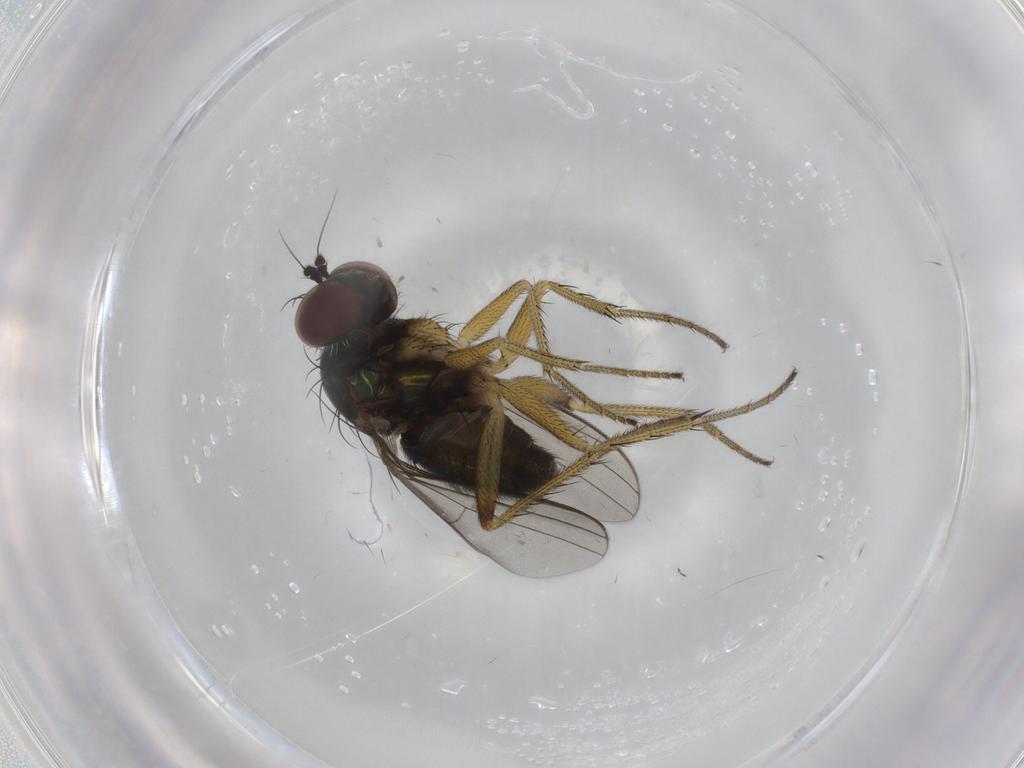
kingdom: Animalia
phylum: Arthropoda
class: Insecta
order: Diptera
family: Dolichopodidae
